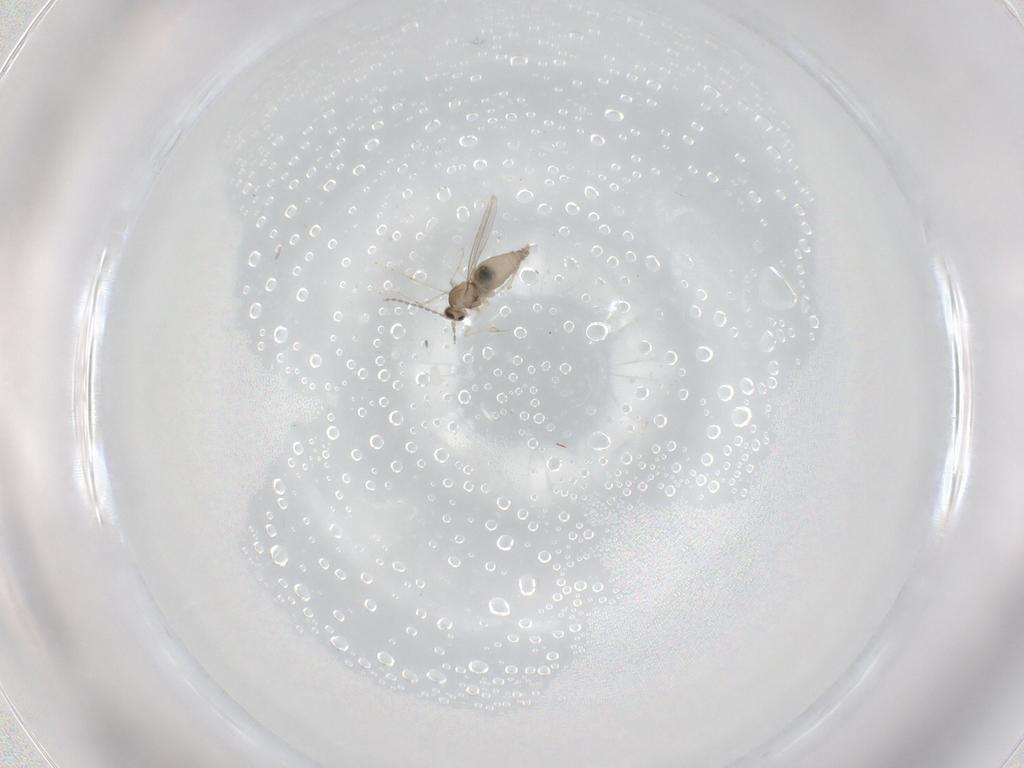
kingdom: Animalia
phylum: Arthropoda
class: Insecta
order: Diptera
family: Cecidomyiidae
